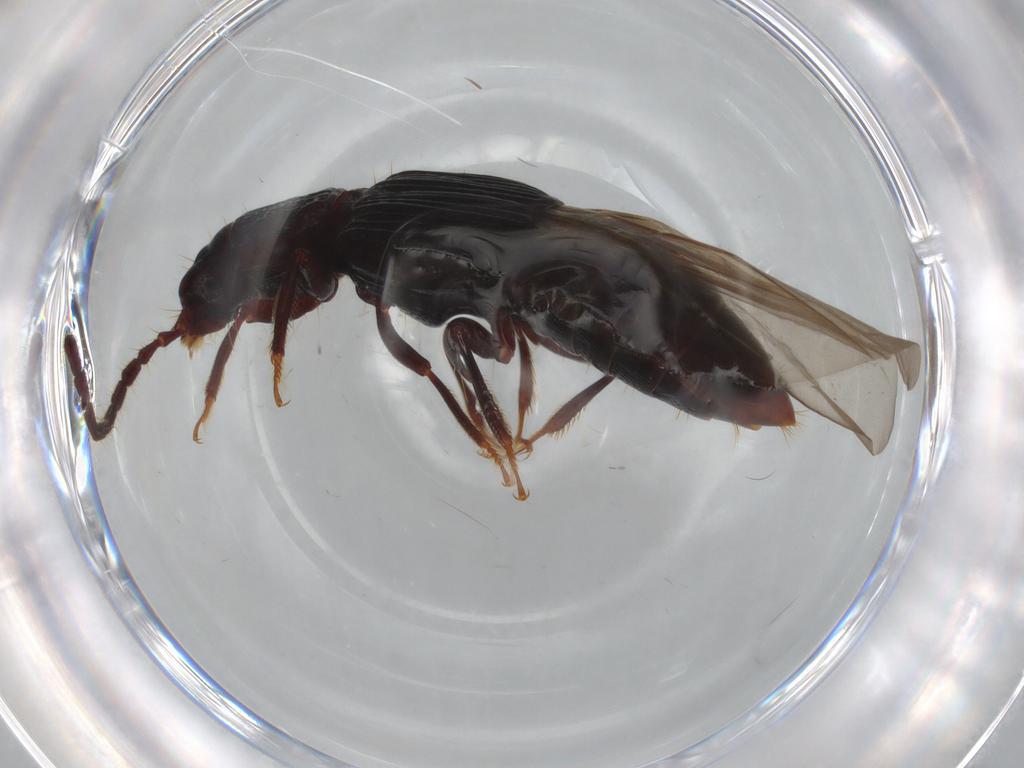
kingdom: Animalia
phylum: Arthropoda
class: Insecta
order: Coleoptera
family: Staphylinidae
